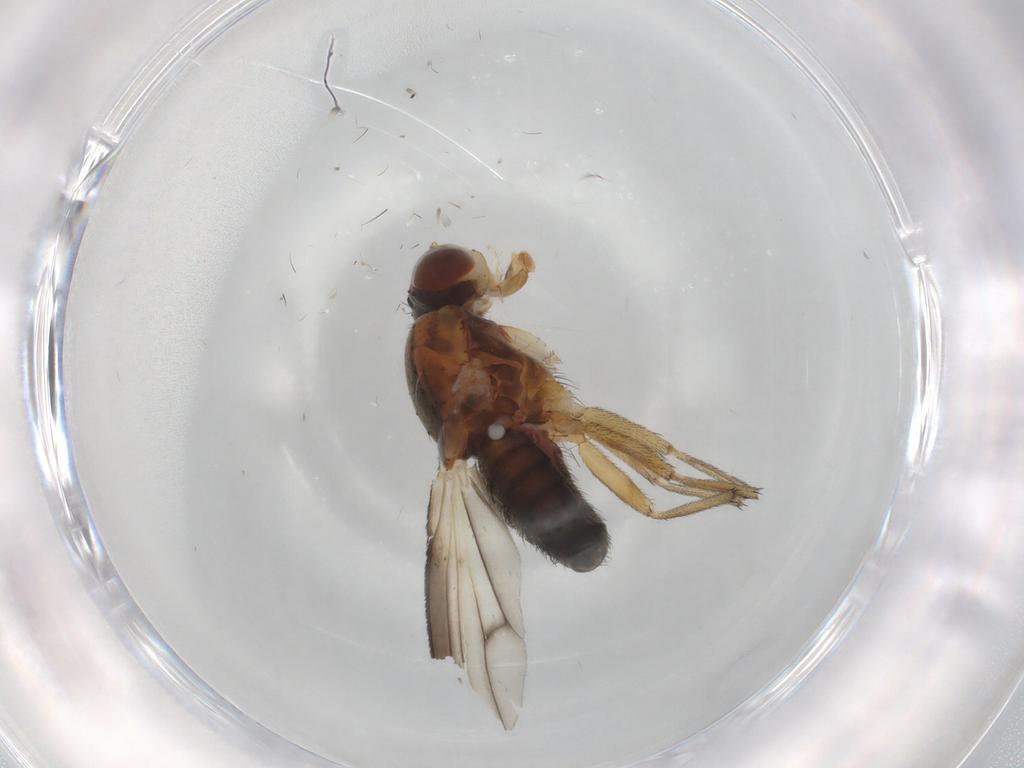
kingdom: Animalia
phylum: Arthropoda
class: Insecta
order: Diptera
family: Heleomyzidae
